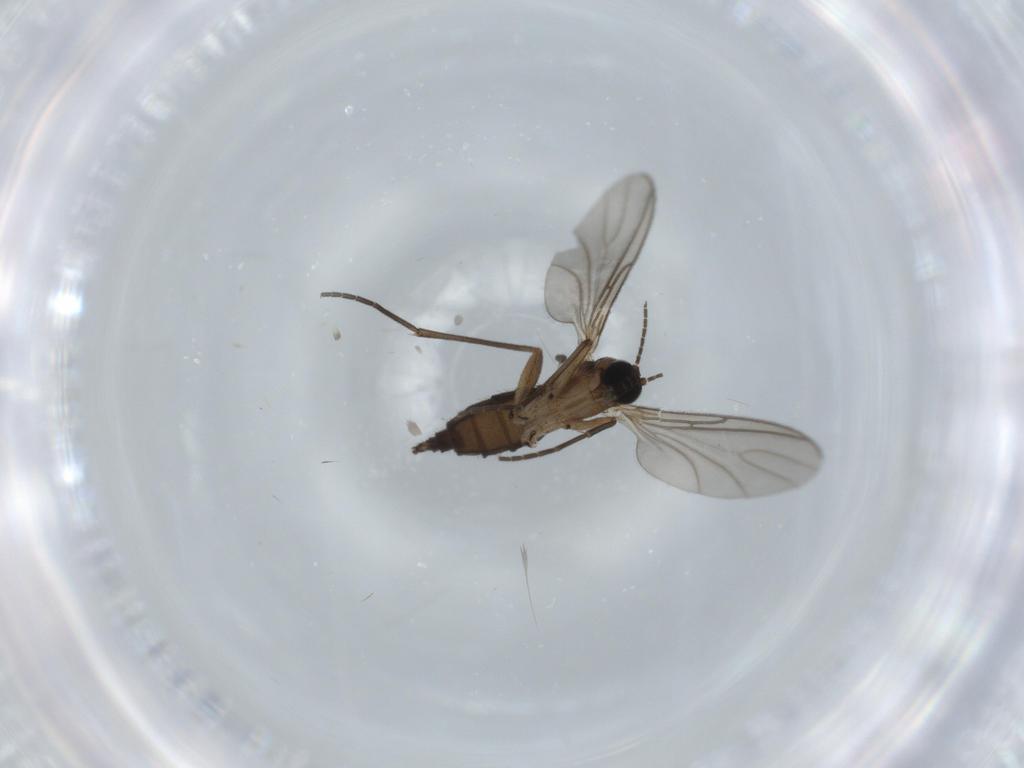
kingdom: Animalia
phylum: Arthropoda
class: Insecta
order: Diptera
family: Sciaridae
